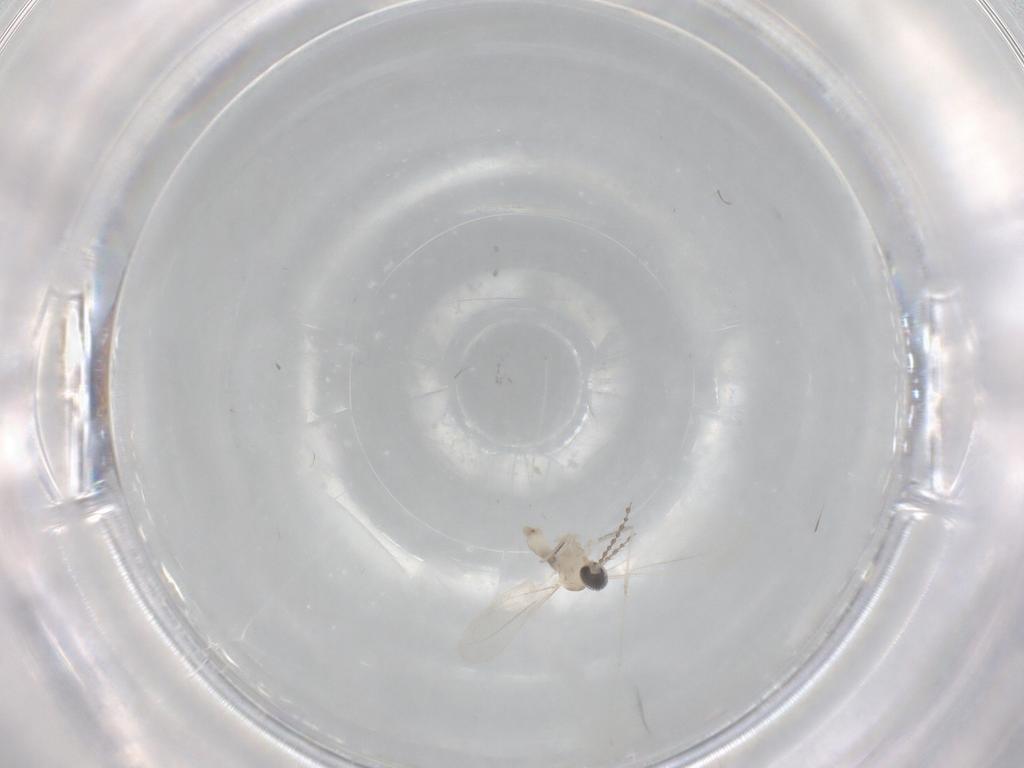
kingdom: Animalia
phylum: Arthropoda
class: Insecta
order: Diptera
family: Cecidomyiidae
